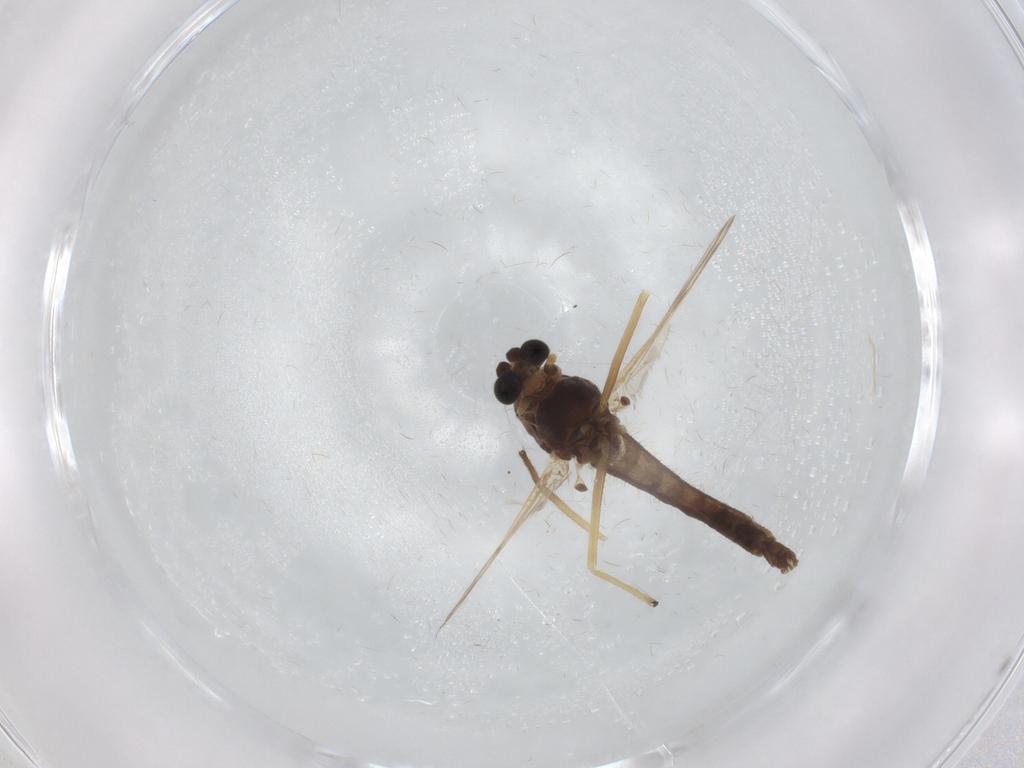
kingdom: Animalia
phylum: Arthropoda
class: Insecta
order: Diptera
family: Chironomidae
